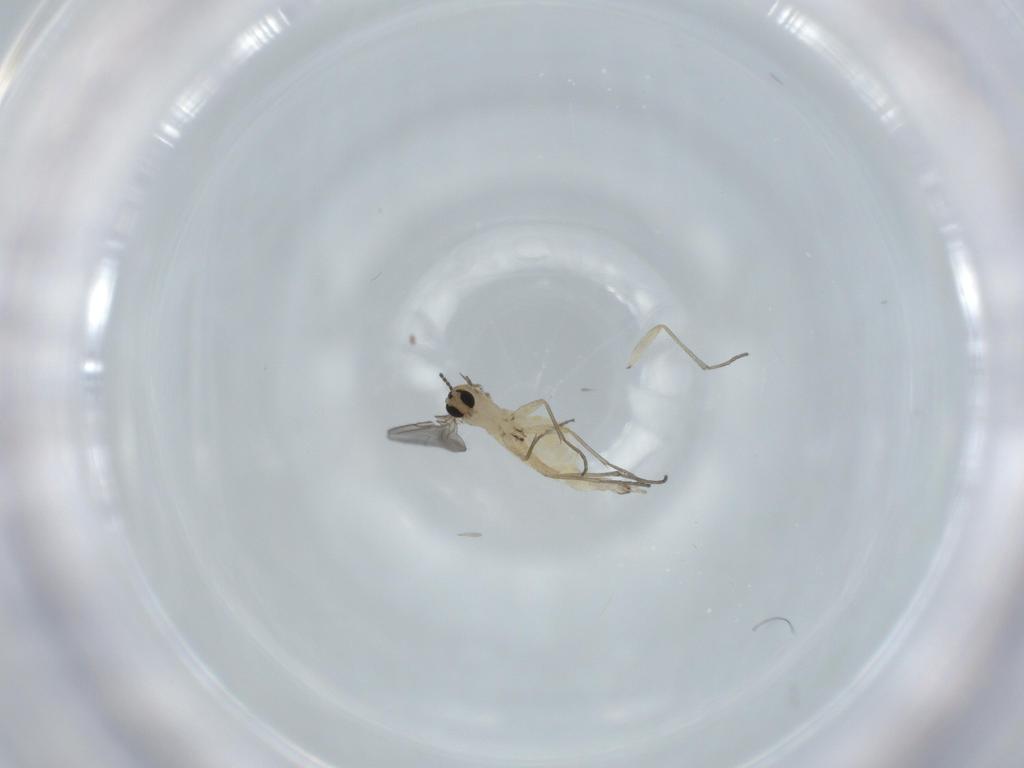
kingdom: Animalia
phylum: Arthropoda
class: Insecta
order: Diptera
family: Sciaridae
